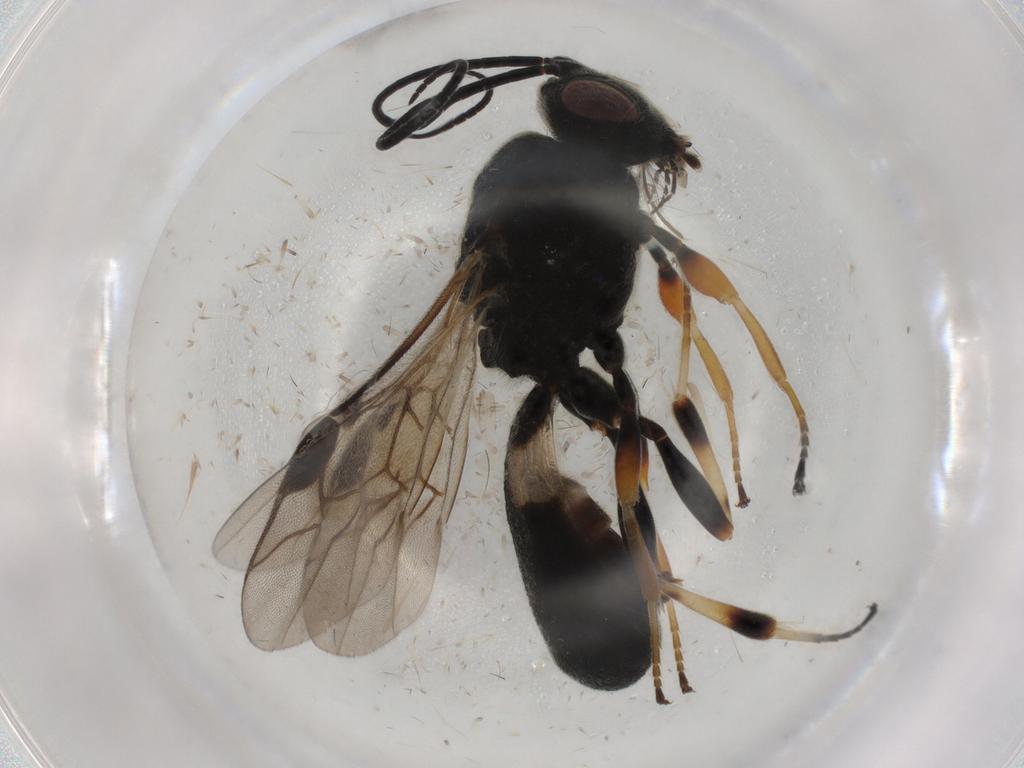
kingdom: Animalia
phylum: Arthropoda
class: Insecta
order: Hymenoptera
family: Braconidae
